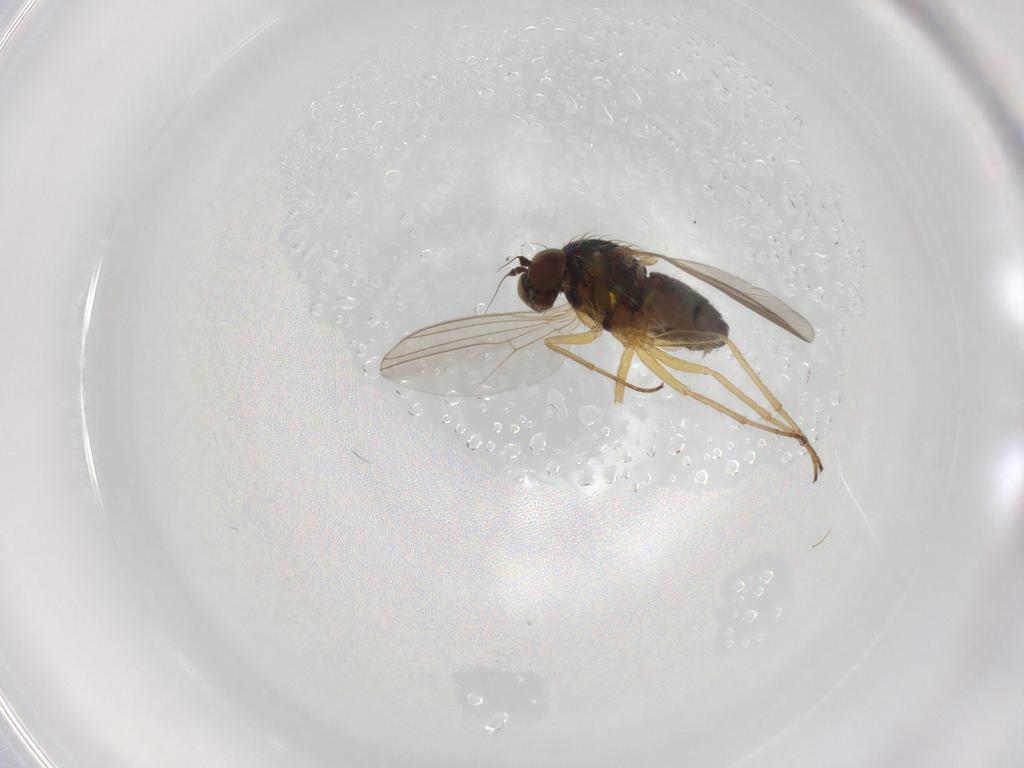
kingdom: Animalia
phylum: Arthropoda
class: Insecta
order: Diptera
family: Dolichopodidae
